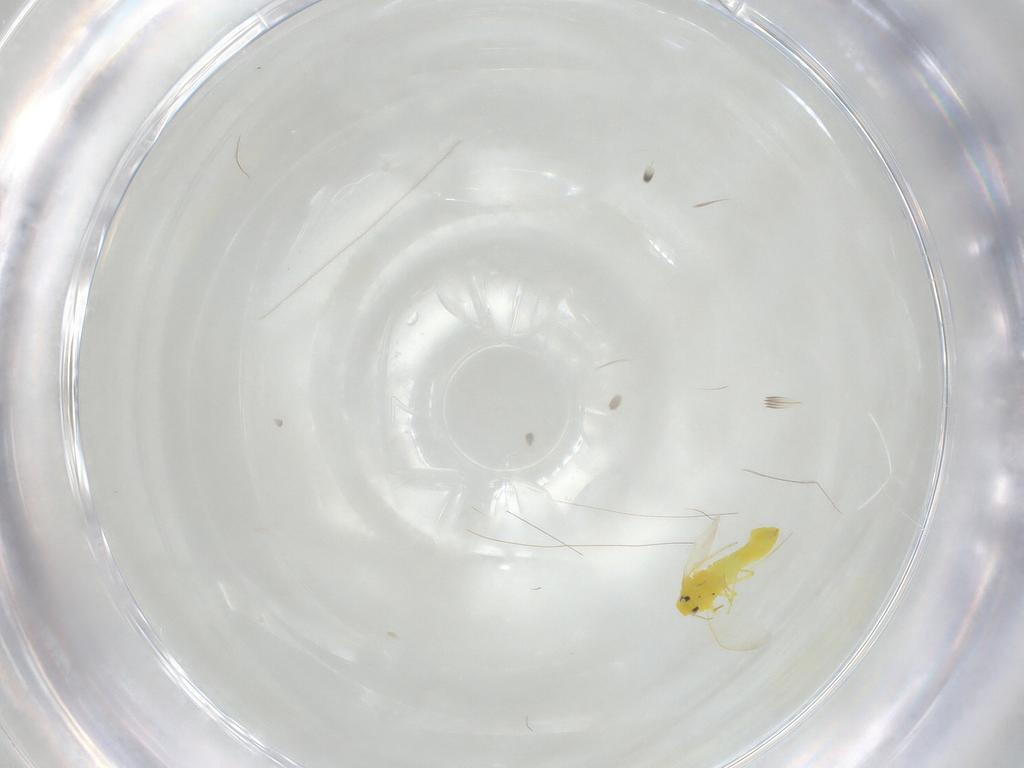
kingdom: Animalia
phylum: Arthropoda
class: Insecta
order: Hemiptera
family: Aleyrodidae
